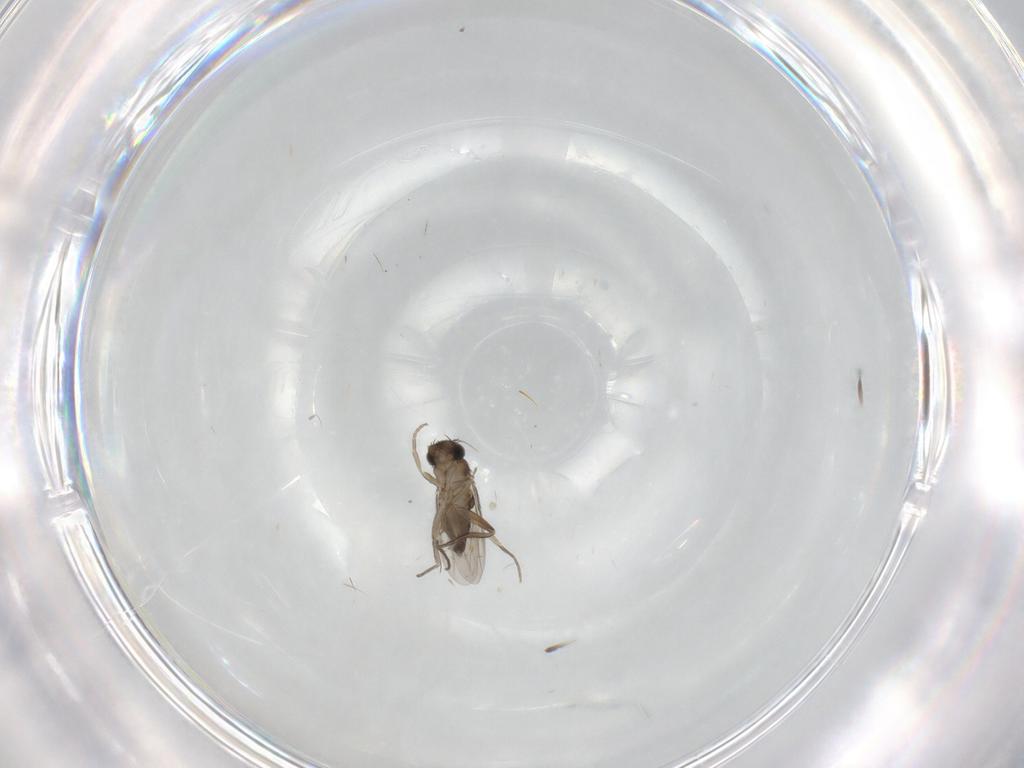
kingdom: Animalia
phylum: Arthropoda
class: Insecta
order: Diptera
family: Phoridae
